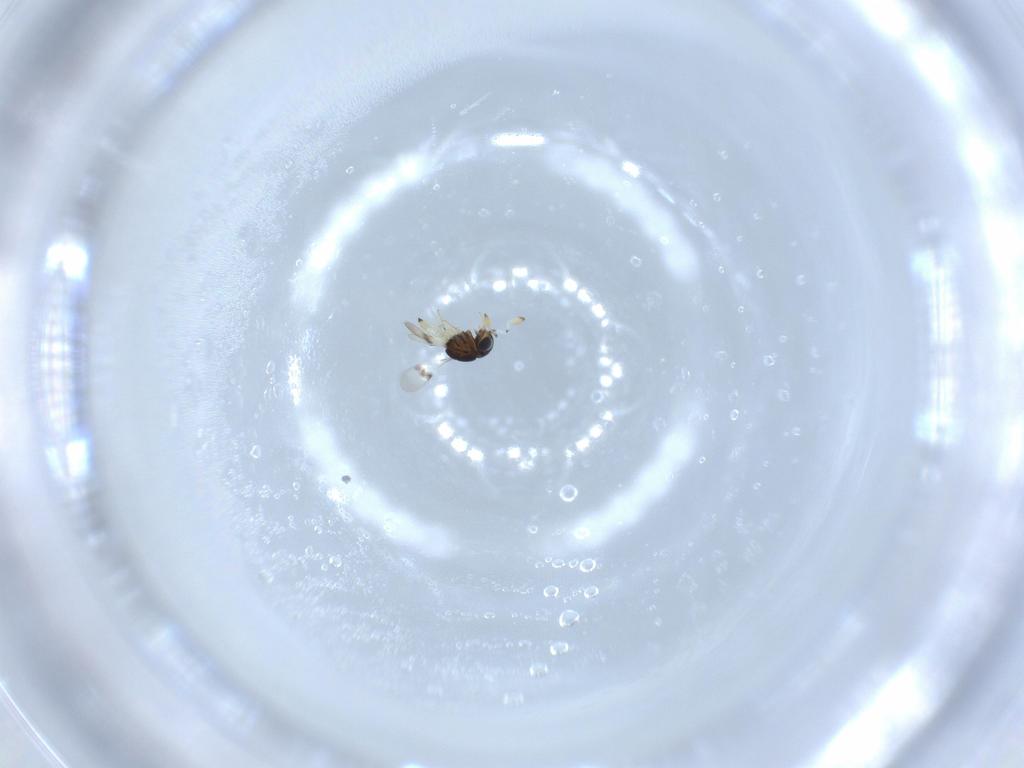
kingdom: Animalia
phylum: Arthropoda
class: Insecta
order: Hymenoptera
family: Scelionidae
